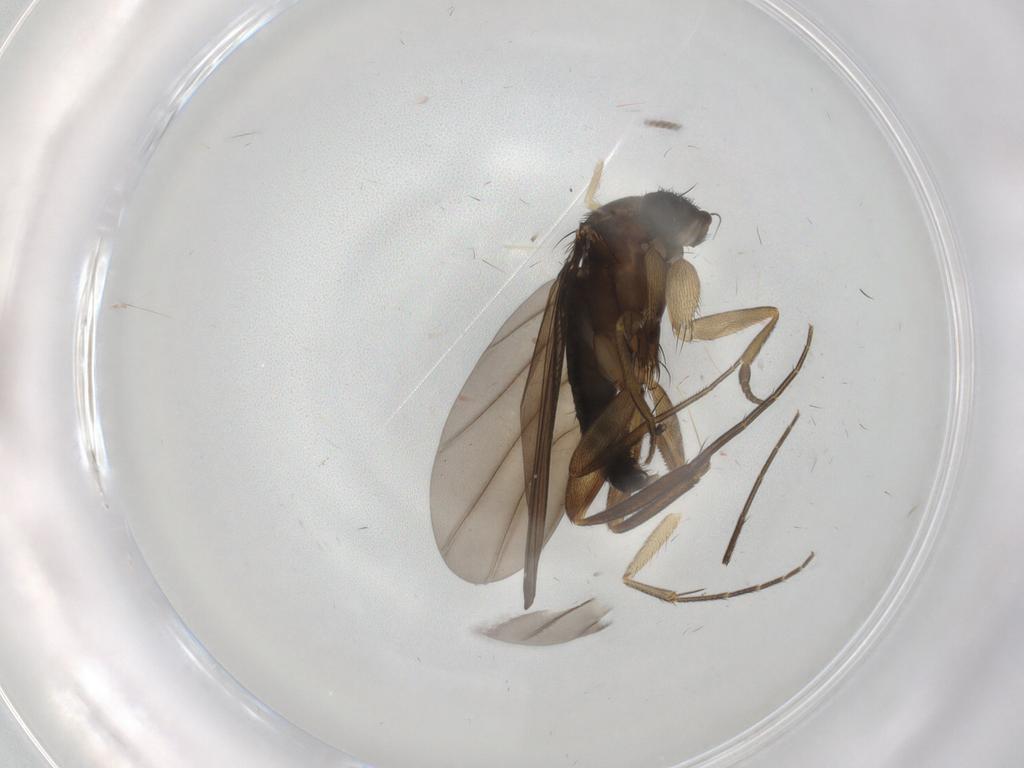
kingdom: Animalia
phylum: Arthropoda
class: Insecta
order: Diptera
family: Phoridae
